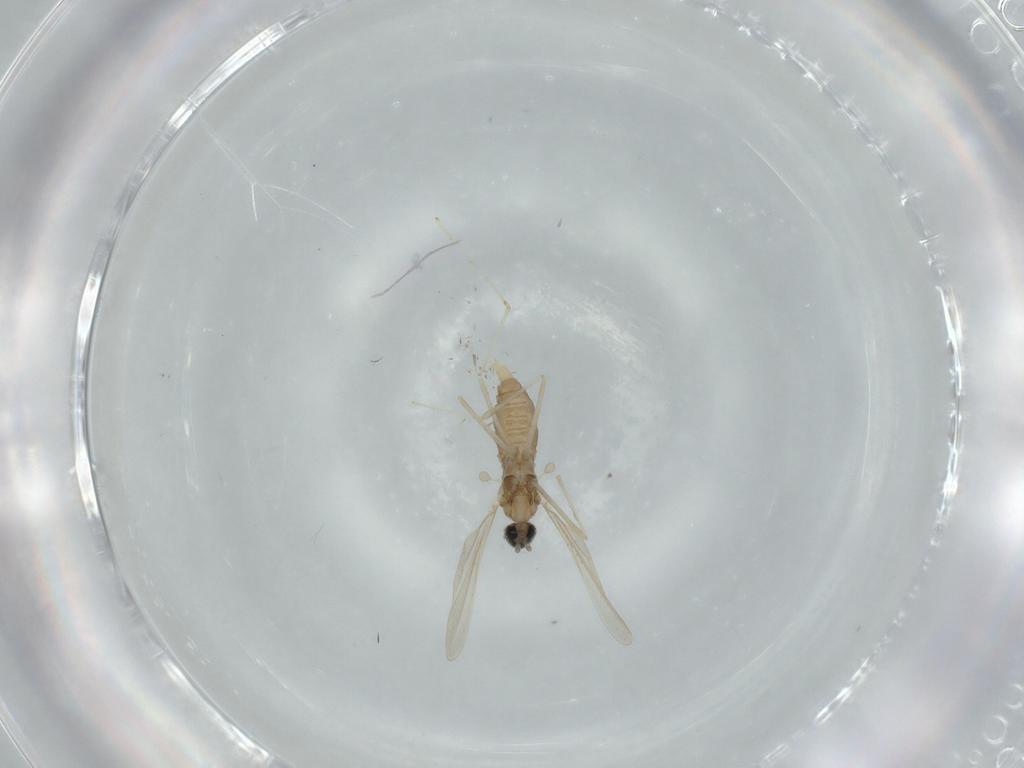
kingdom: Animalia
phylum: Arthropoda
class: Insecta
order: Diptera
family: Cecidomyiidae
